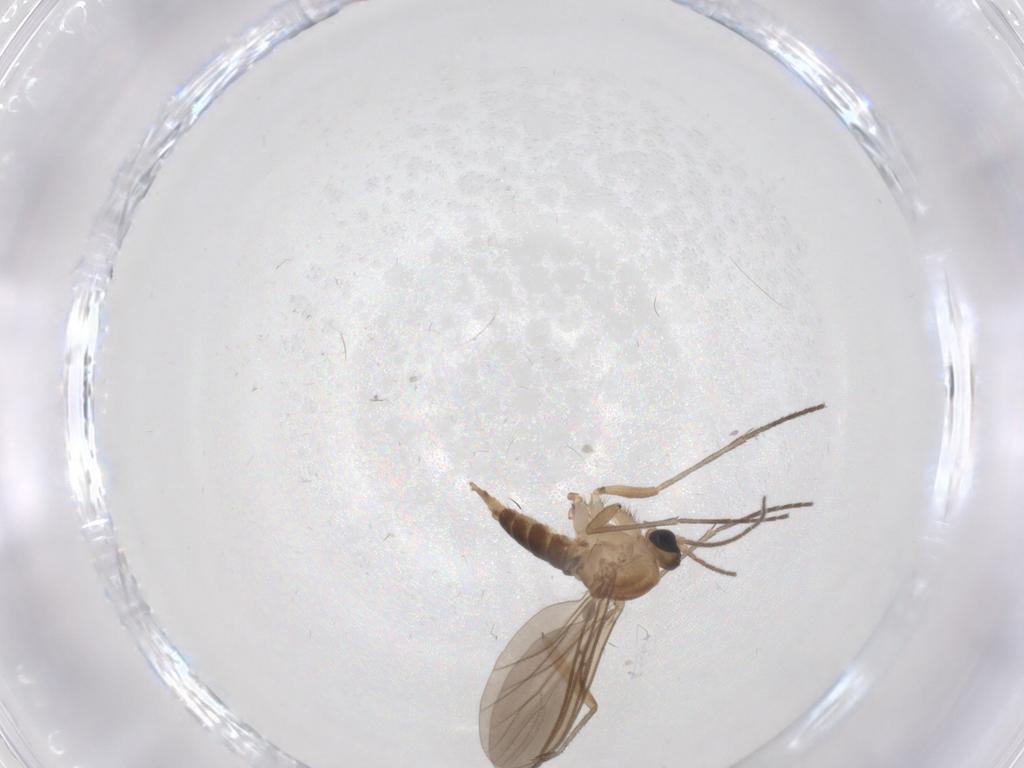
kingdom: Animalia
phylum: Arthropoda
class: Insecta
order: Diptera
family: Sciaridae
